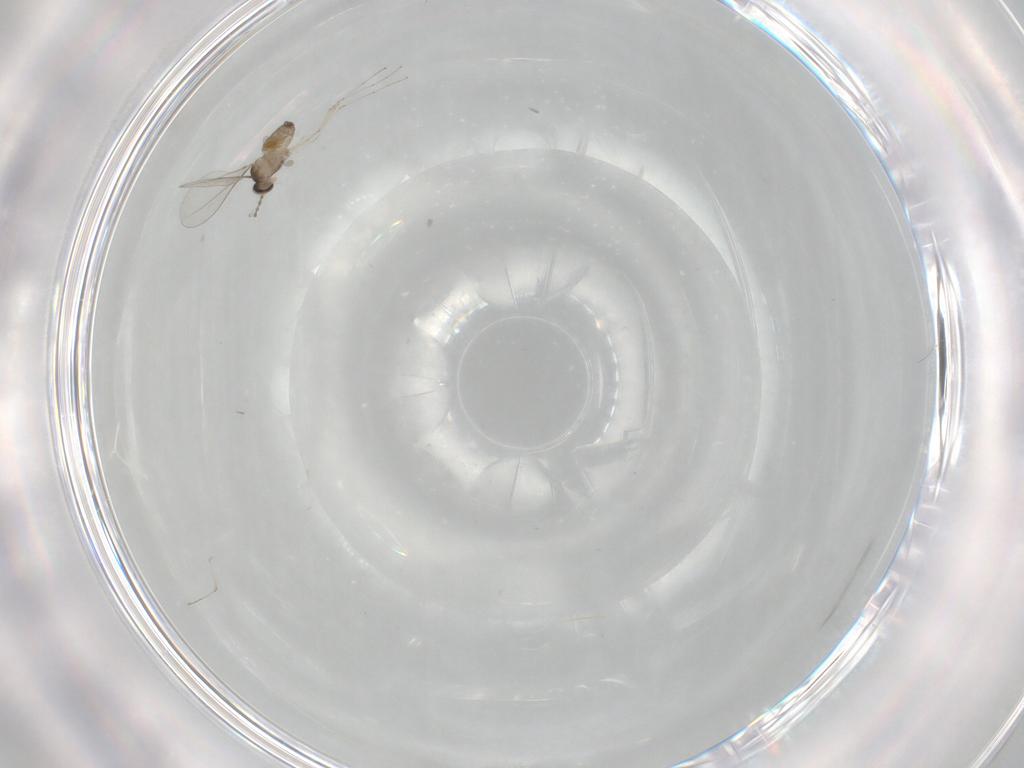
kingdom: Animalia
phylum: Arthropoda
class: Insecta
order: Diptera
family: Cecidomyiidae
